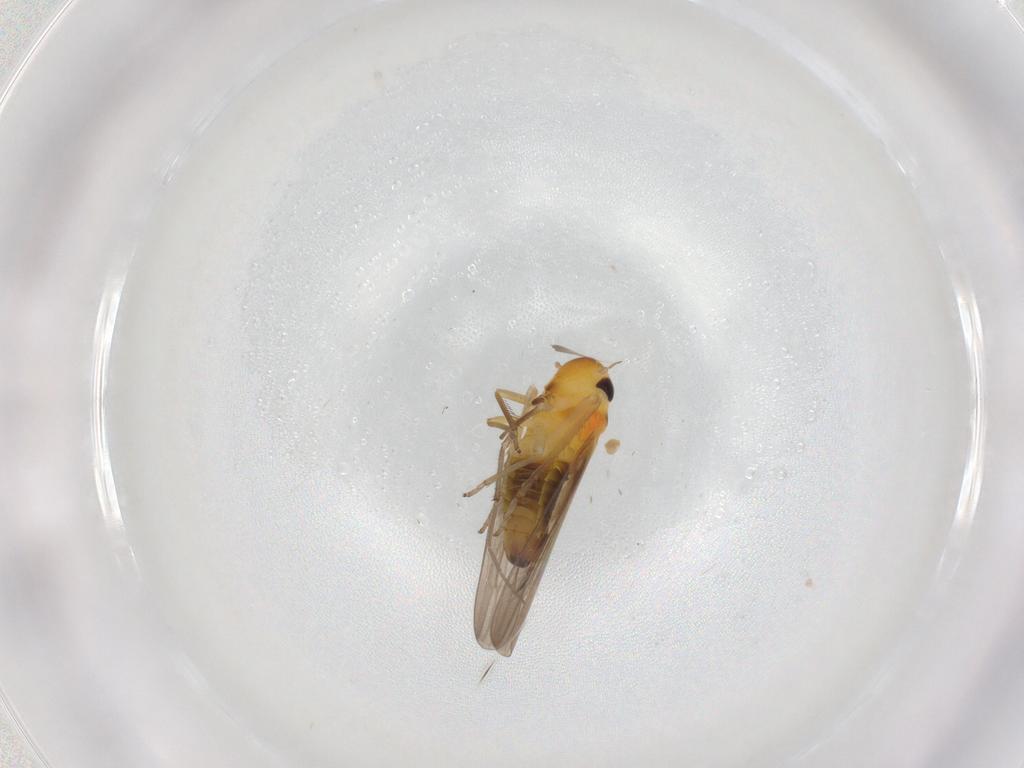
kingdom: Animalia
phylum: Arthropoda
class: Insecta
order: Hemiptera
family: Cicadellidae
